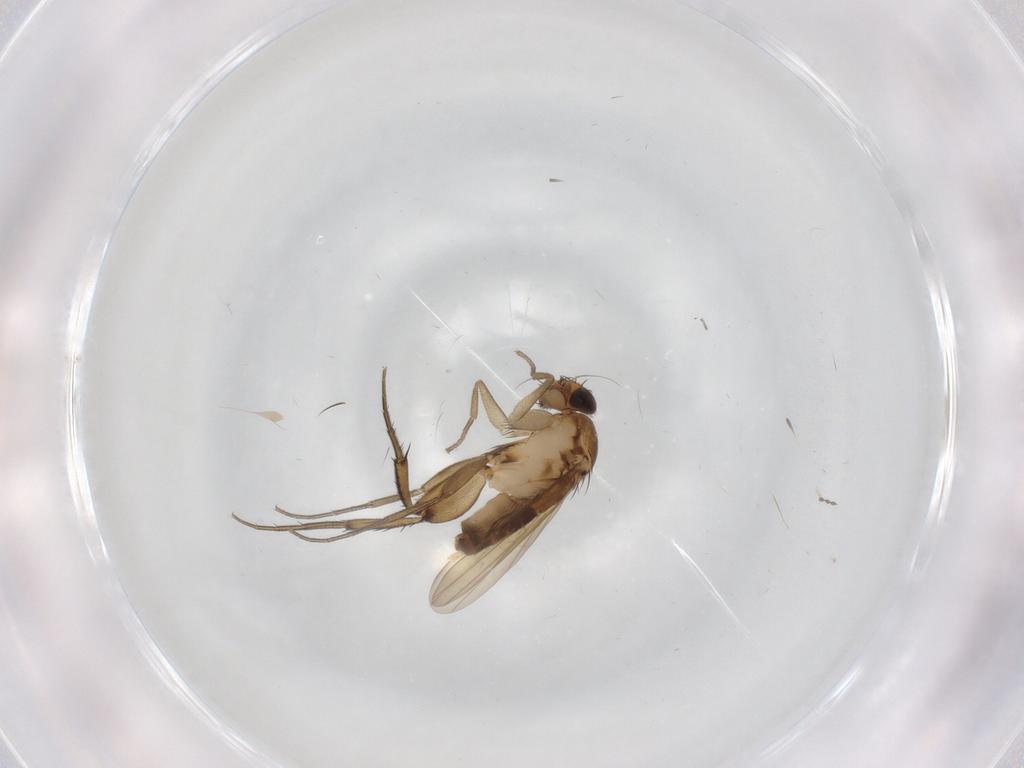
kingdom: Animalia
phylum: Arthropoda
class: Insecta
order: Diptera
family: Phoridae
